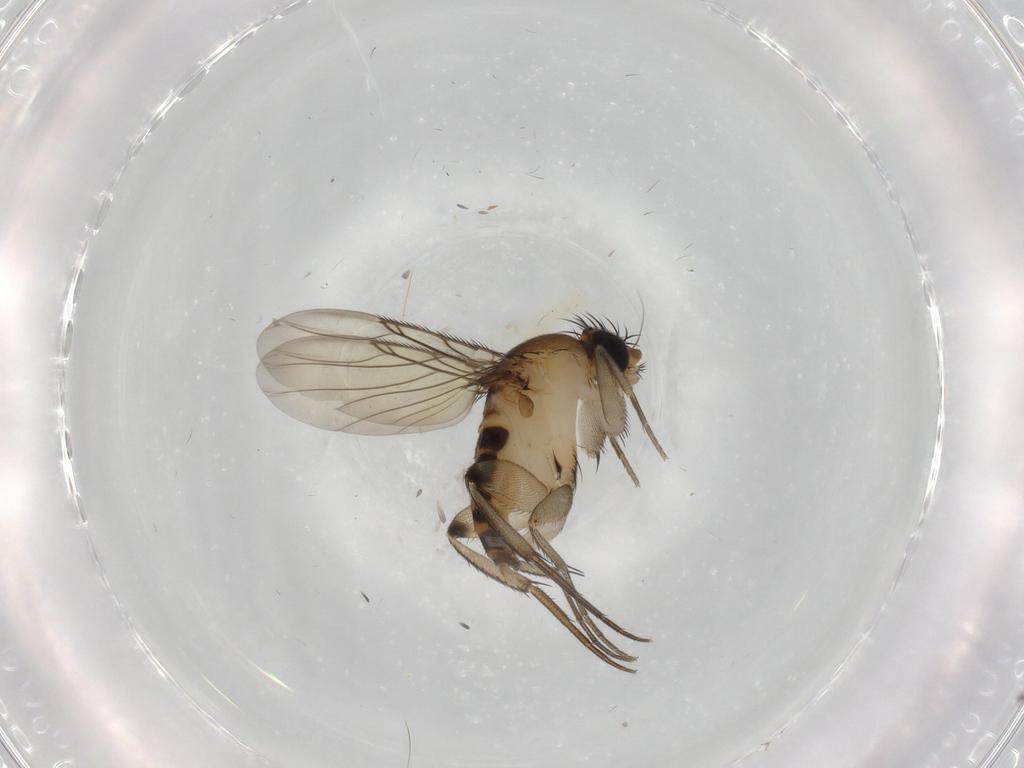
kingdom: Animalia
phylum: Arthropoda
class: Insecta
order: Diptera
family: Phoridae
